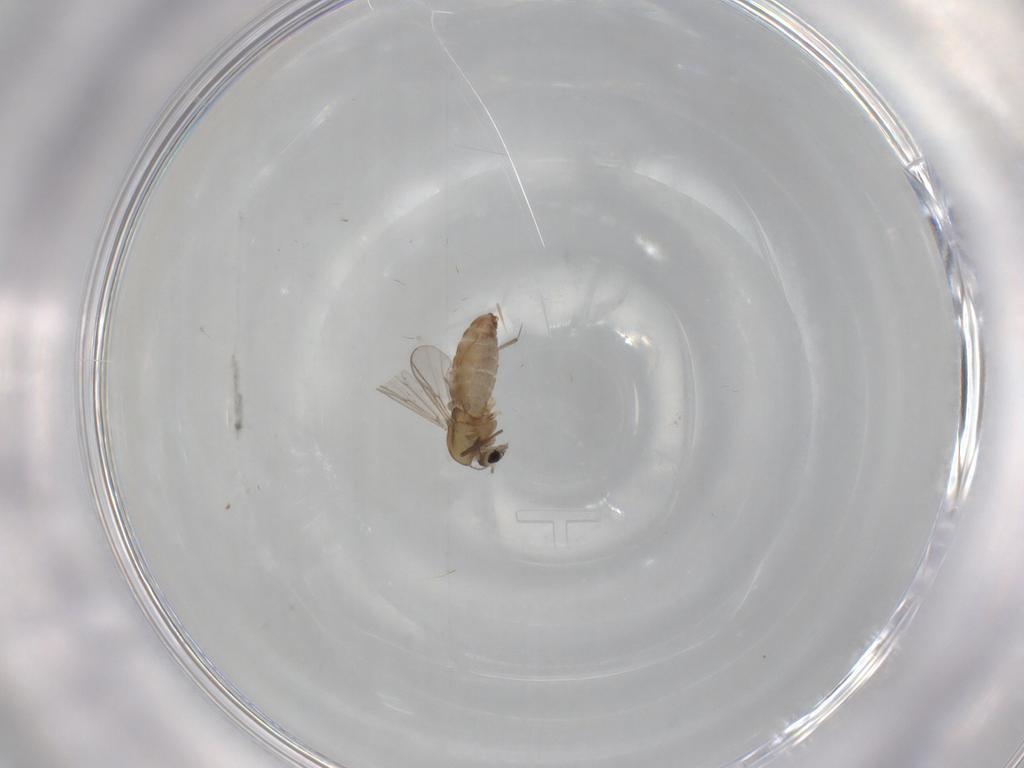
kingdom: Animalia
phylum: Arthropoda
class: Insecta
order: Diptera
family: Chironomidae
